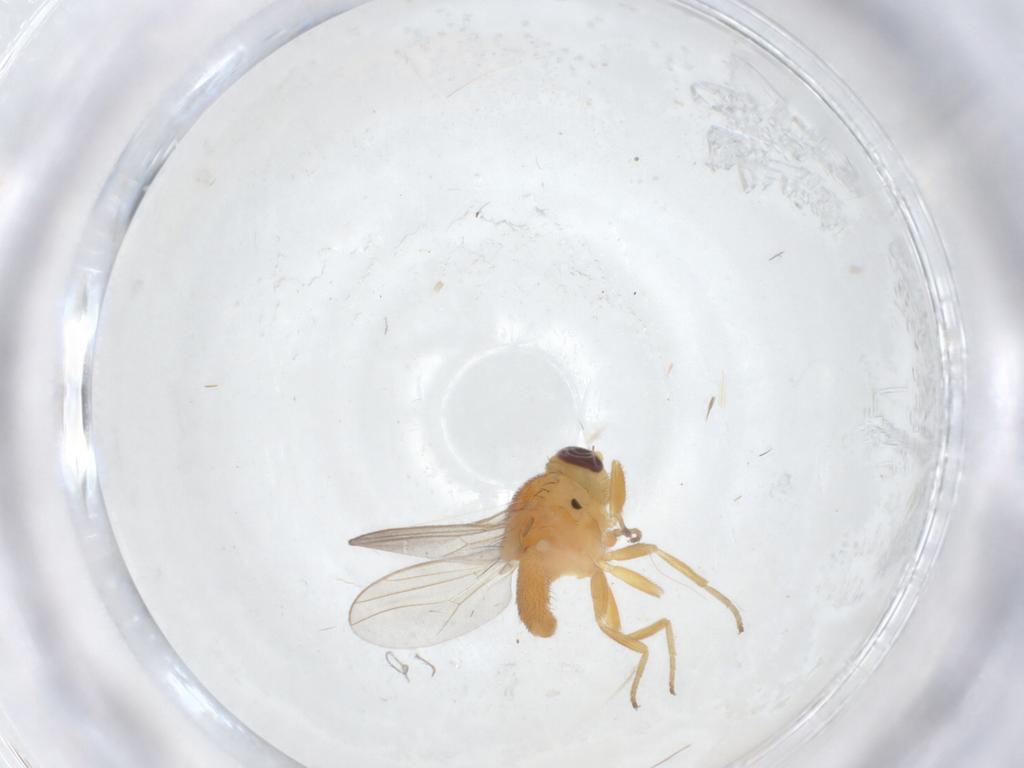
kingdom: Animalia
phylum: Arthropoda
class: Insecta
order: Diptera
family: Chloropidae
